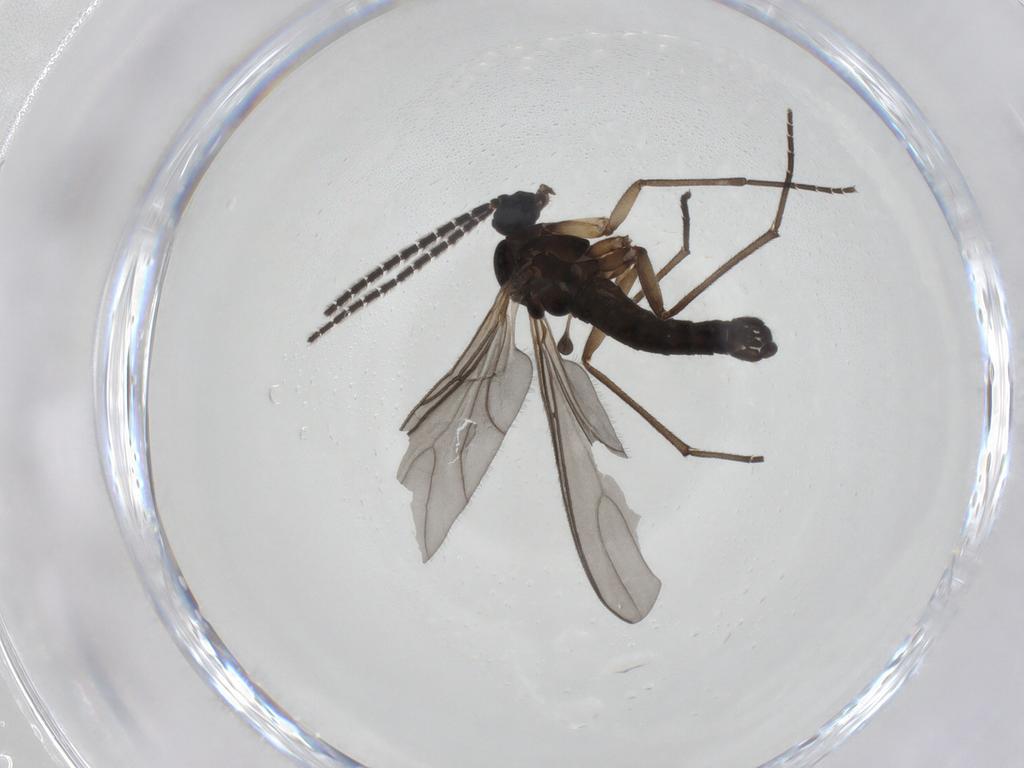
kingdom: Animalia
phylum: Arthropoda
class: Insecta
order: Diptera
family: Sciaridae
